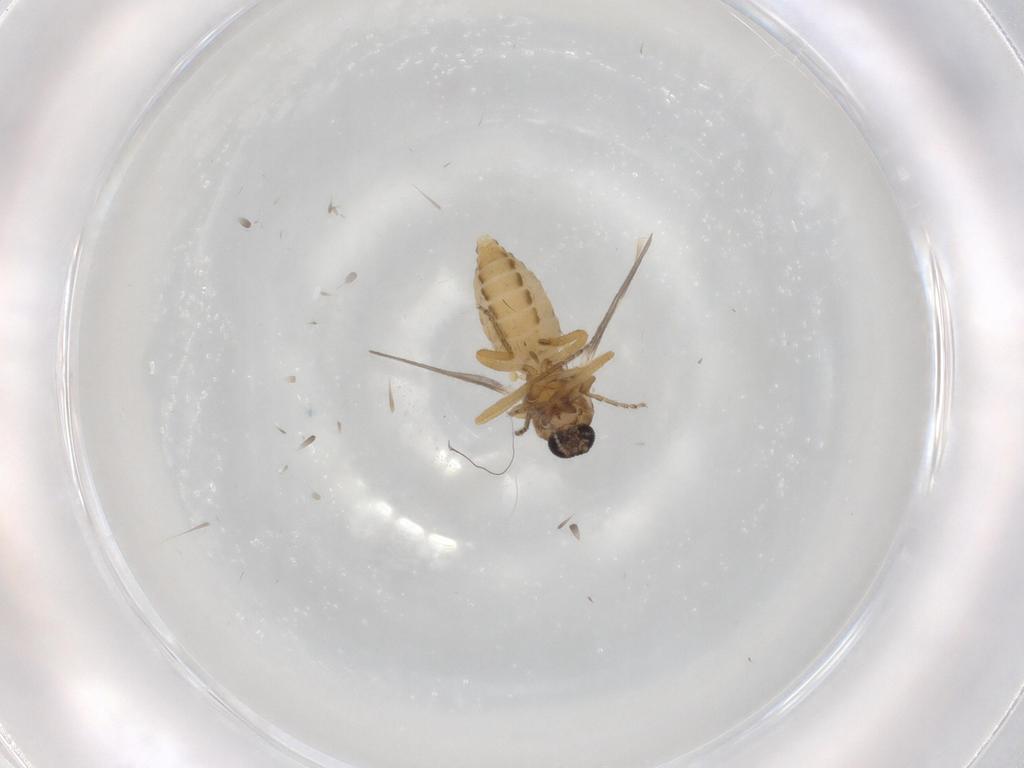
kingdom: Animalia
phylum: Arthropoda
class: Insecta
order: Diptera
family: Ceratopogonidae
